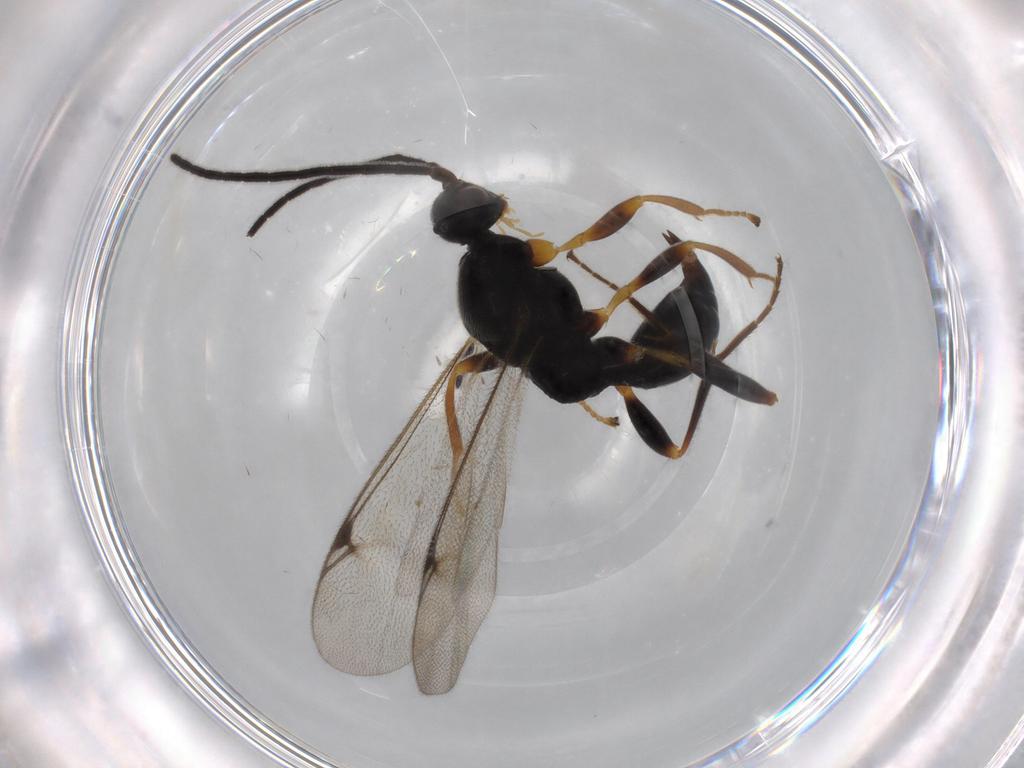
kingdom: Animalia
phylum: Arthropoda
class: Insecta
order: Hymenoptera
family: Proctotrupidae
